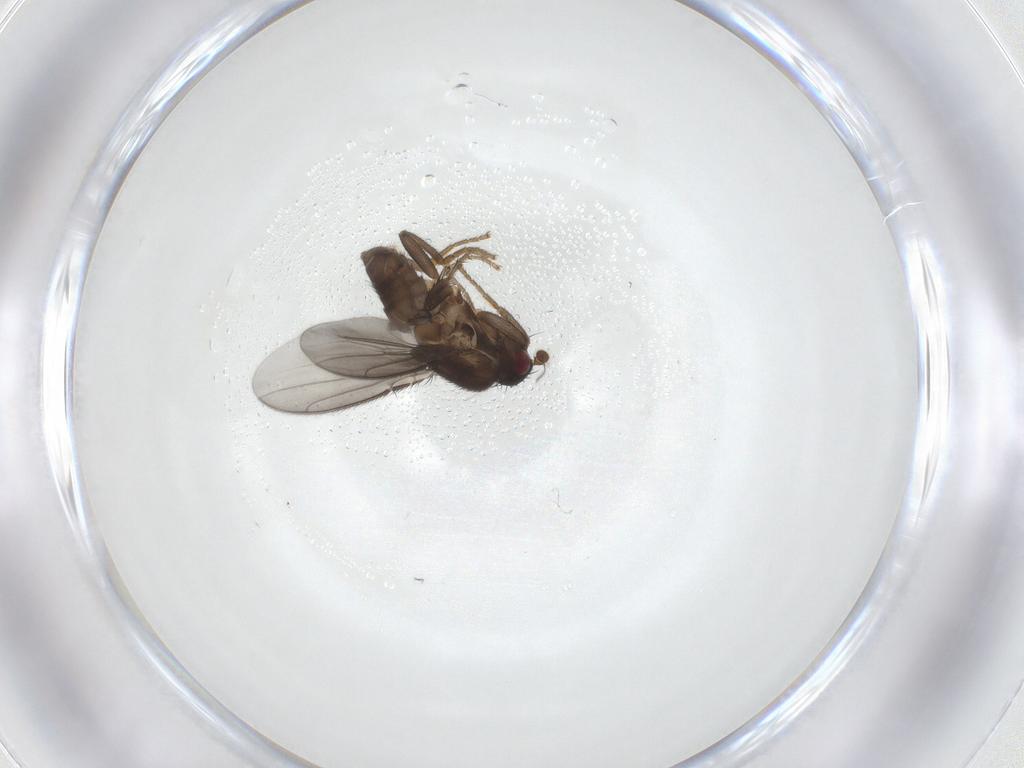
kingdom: Animalia
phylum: Arthropoda
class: Insecta
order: Diptera
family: Sphaeroceridae
